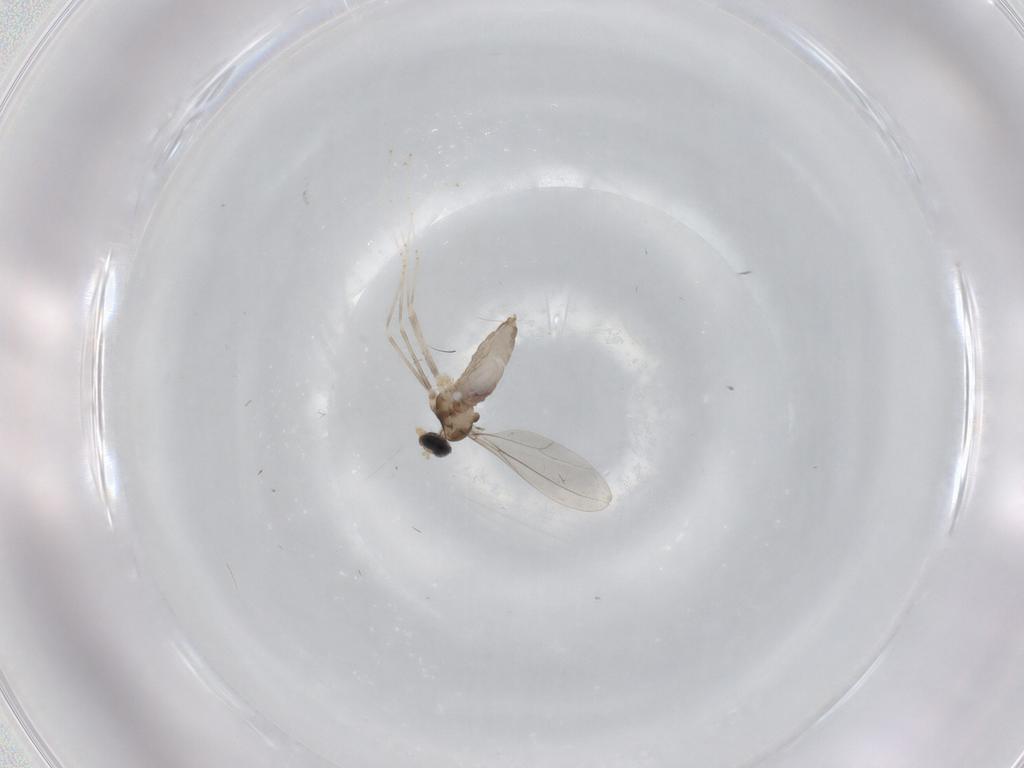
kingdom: Animalia
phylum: Arthropoda
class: Insecta
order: Diptera
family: Cecidomyiidae
